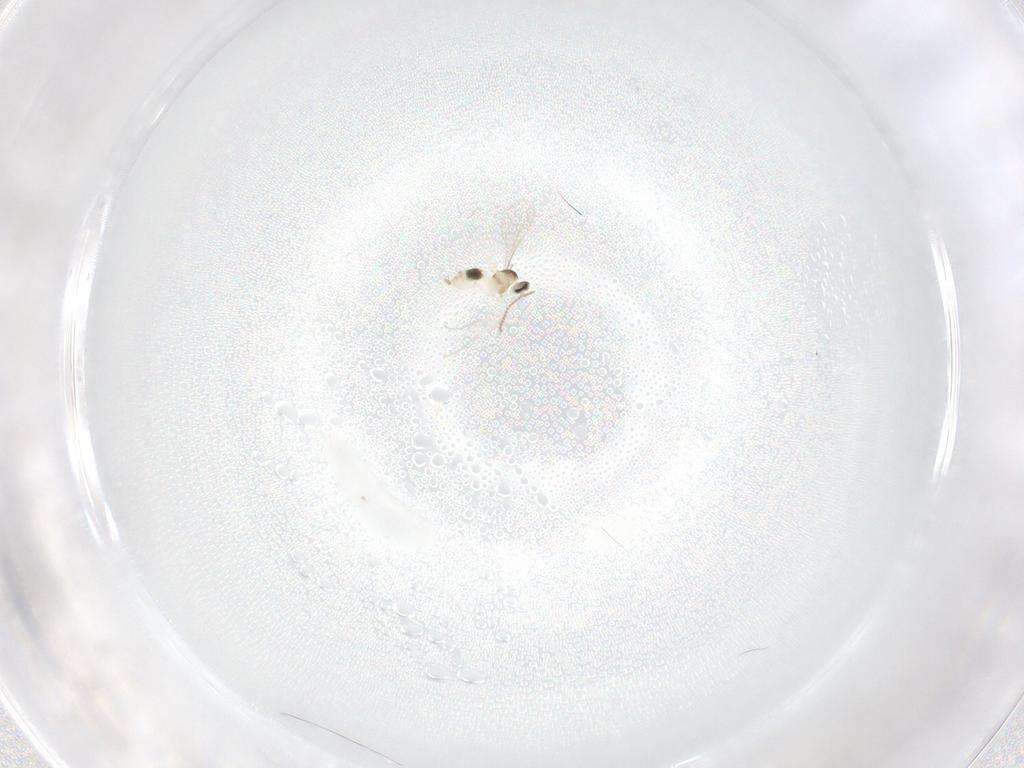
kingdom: Animalia
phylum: Arthropoda
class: Insecta
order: Diptera
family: Cecidomyiidae
